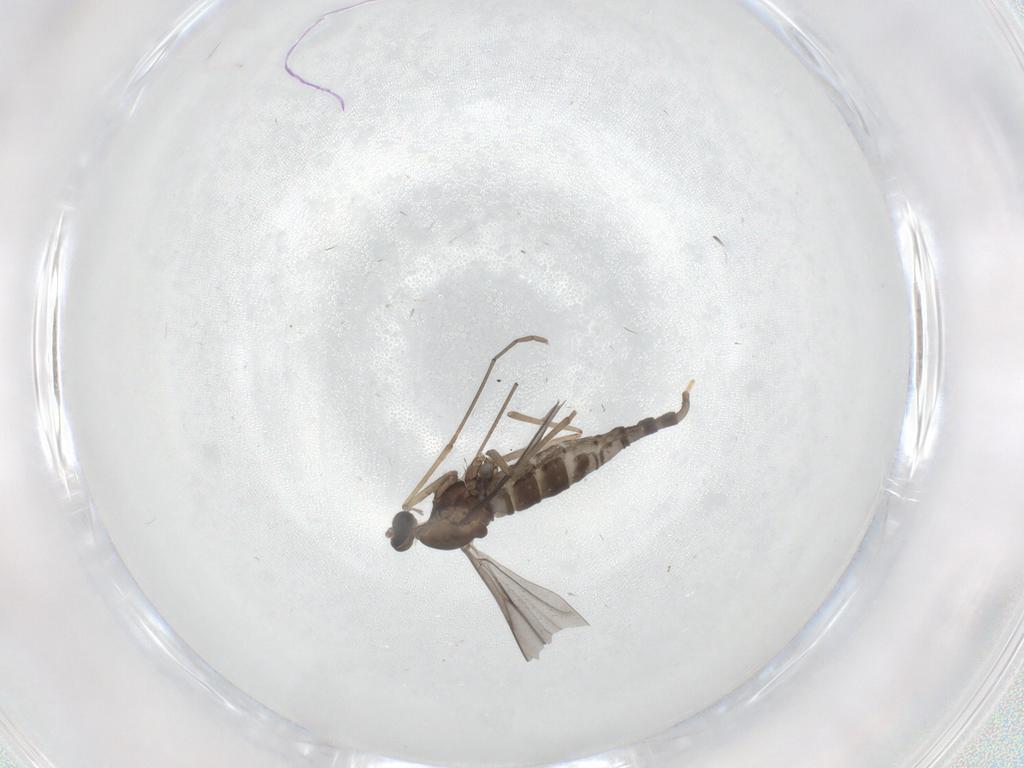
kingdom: Animalia
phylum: Arthropoda
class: Insecta
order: Diptera
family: Cecidomyiidae
